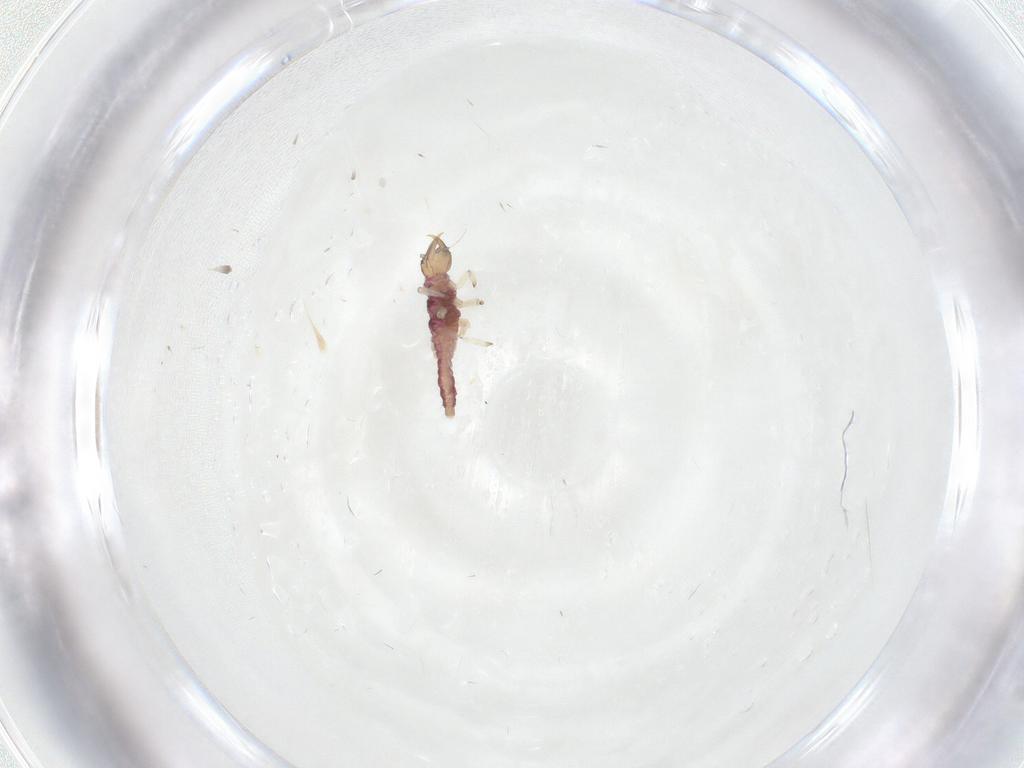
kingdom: Animalia
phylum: Arthropoda
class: Insecta
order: Neuroptera
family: Hemerobiidae
